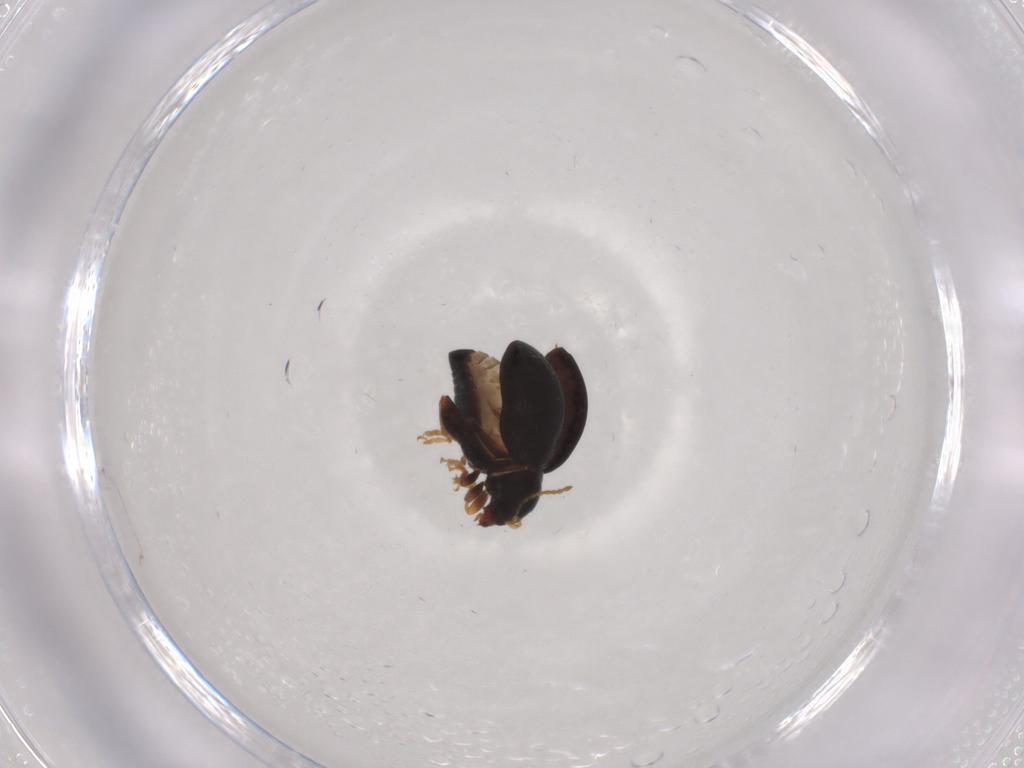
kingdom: Animalia
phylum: Arthropoda
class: Insecta
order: Coleoptera
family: Chrysomelidae
